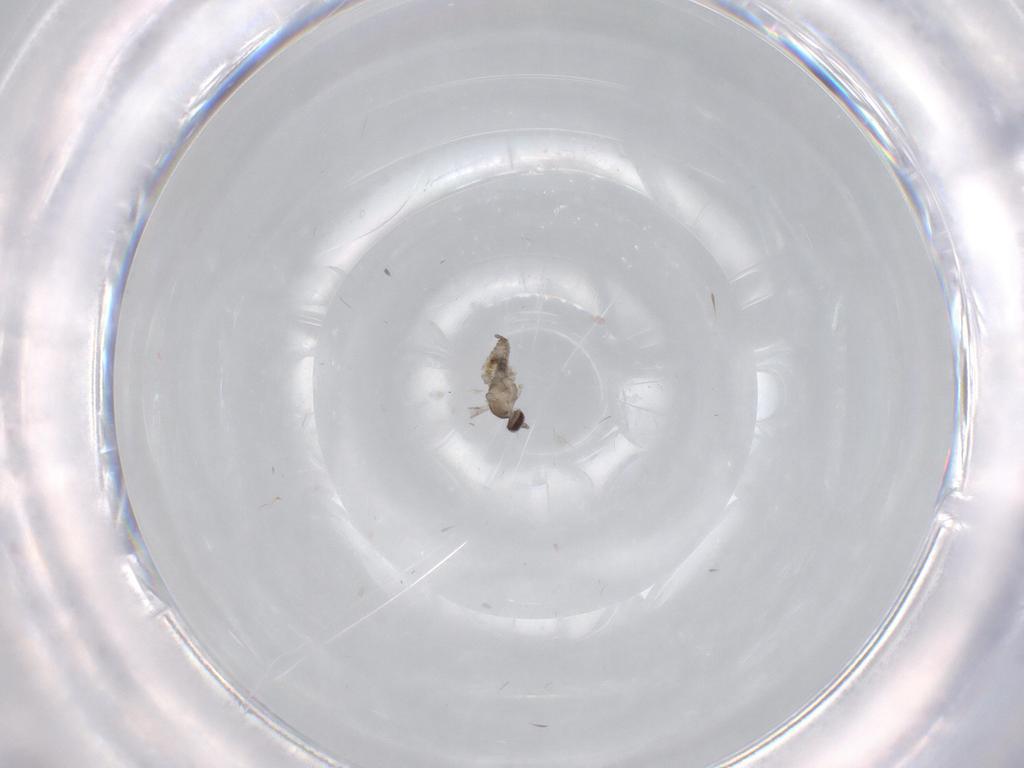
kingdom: Animalia
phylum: Arthropoda
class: Insecta
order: Diptera
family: Cecidomyiidae
